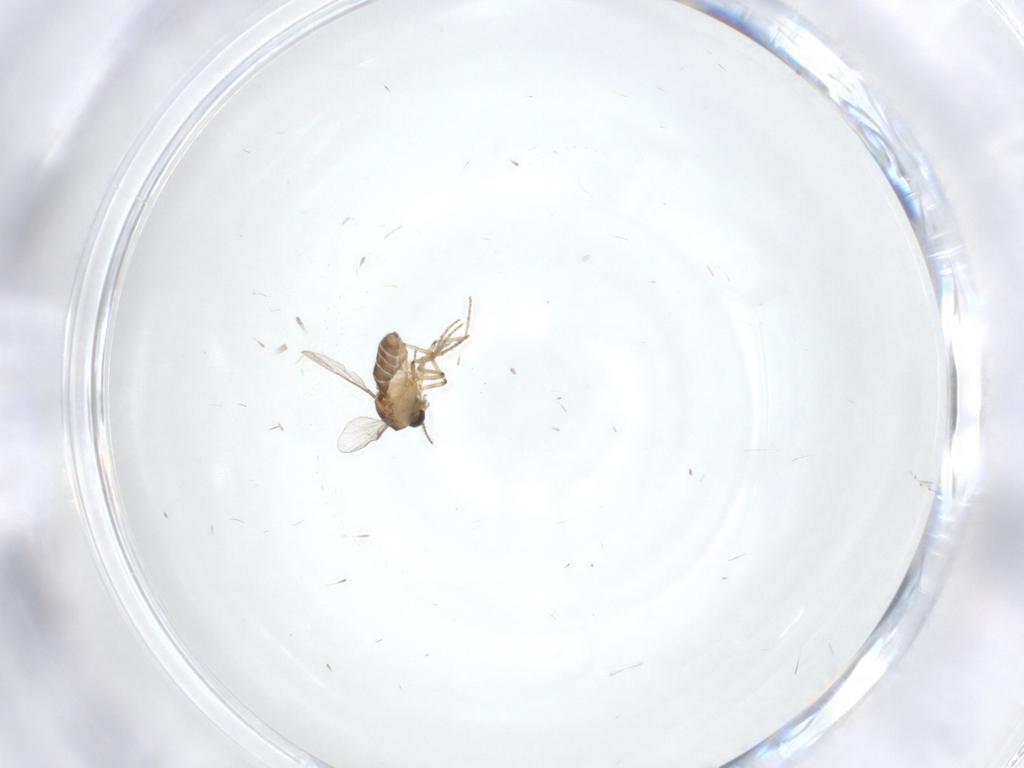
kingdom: Animalia
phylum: Arthropoda
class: Insecta
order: Diptera
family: Ceratopogonidae
